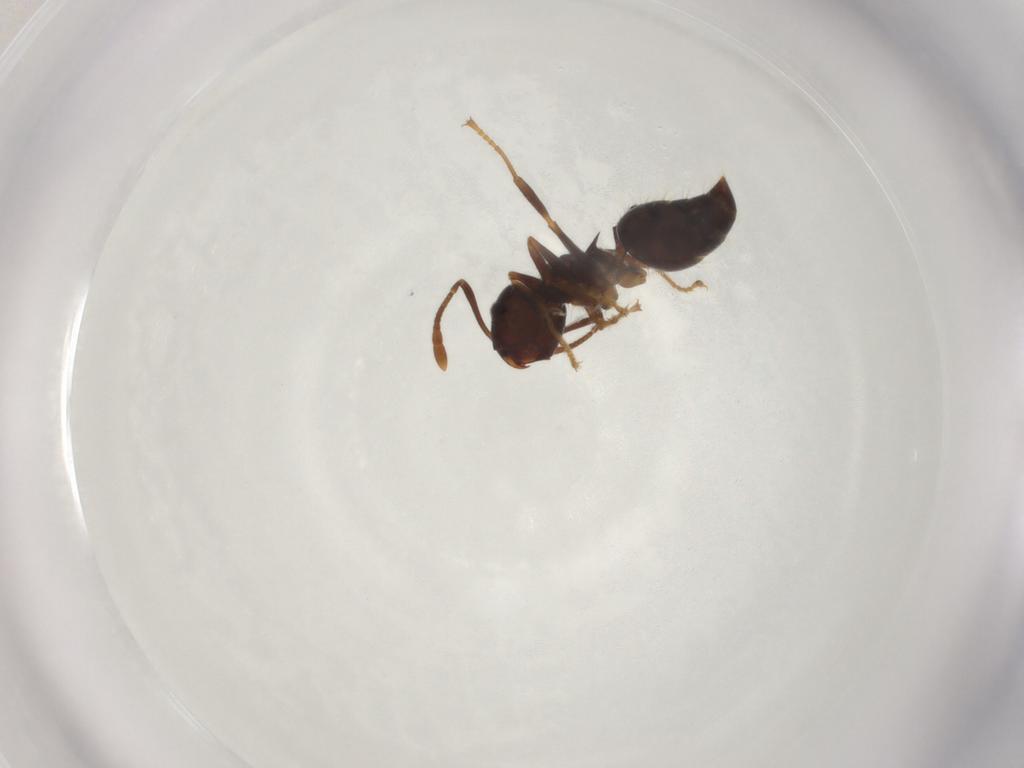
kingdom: Animalia
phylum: Arthropoda
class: Insecta
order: Hymenoptera
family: Formicidae
